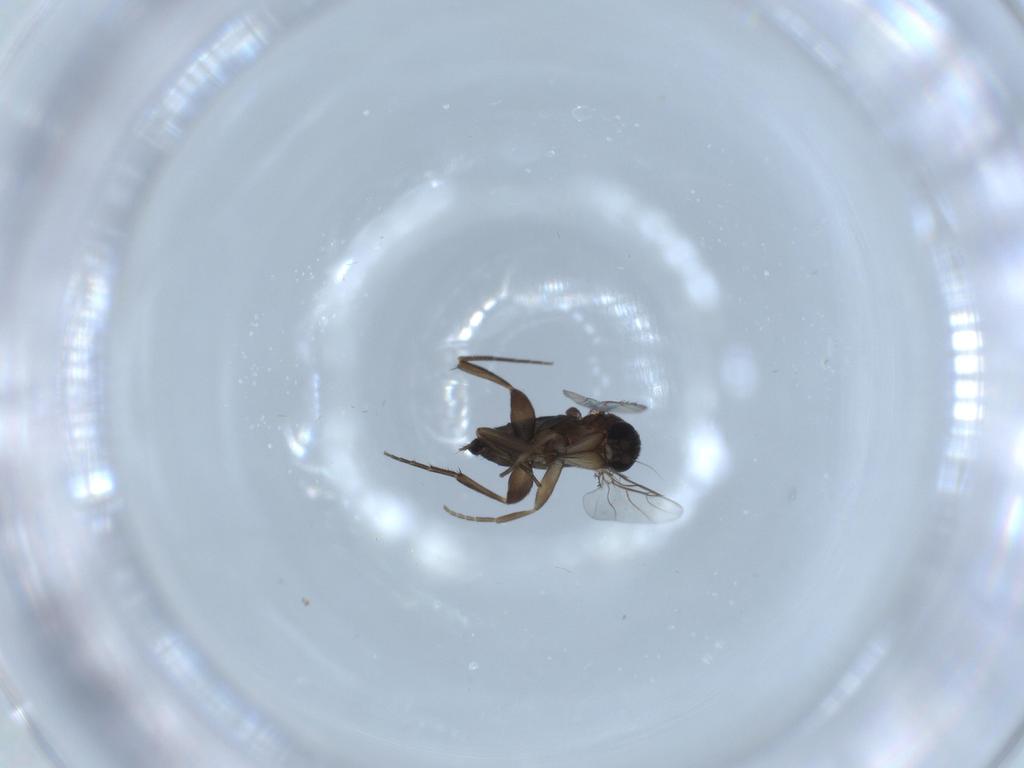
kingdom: Animalia
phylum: Arthropoda
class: Insecta
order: Diptera
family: Phoridae
